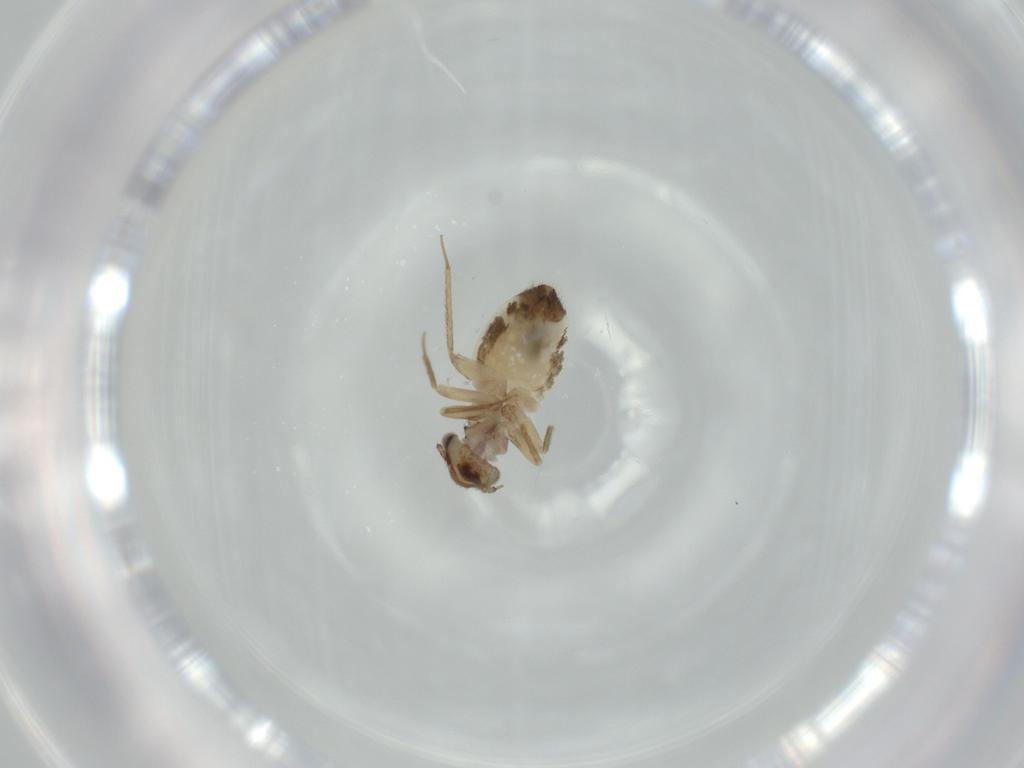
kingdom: Animalia
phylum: Arthropoda
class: Insecta
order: Psocodea
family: Lepidopsocidae
